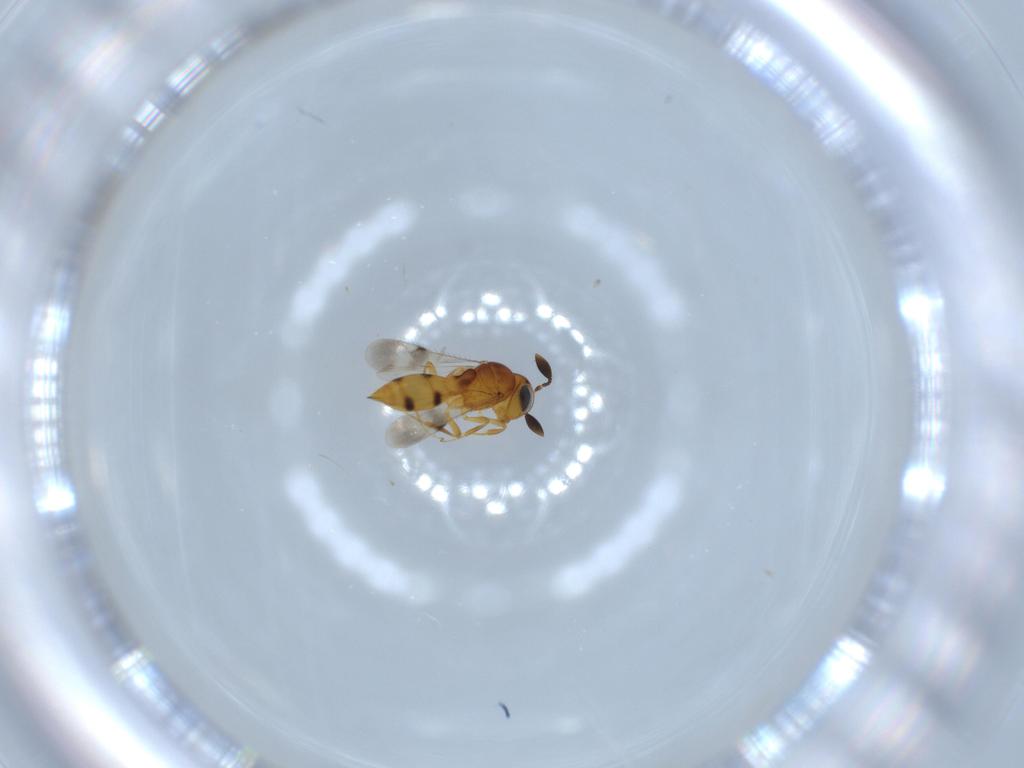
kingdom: Animalia
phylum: Arthropoda
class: Insecta
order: Hymenoptera
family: Scelionidae
